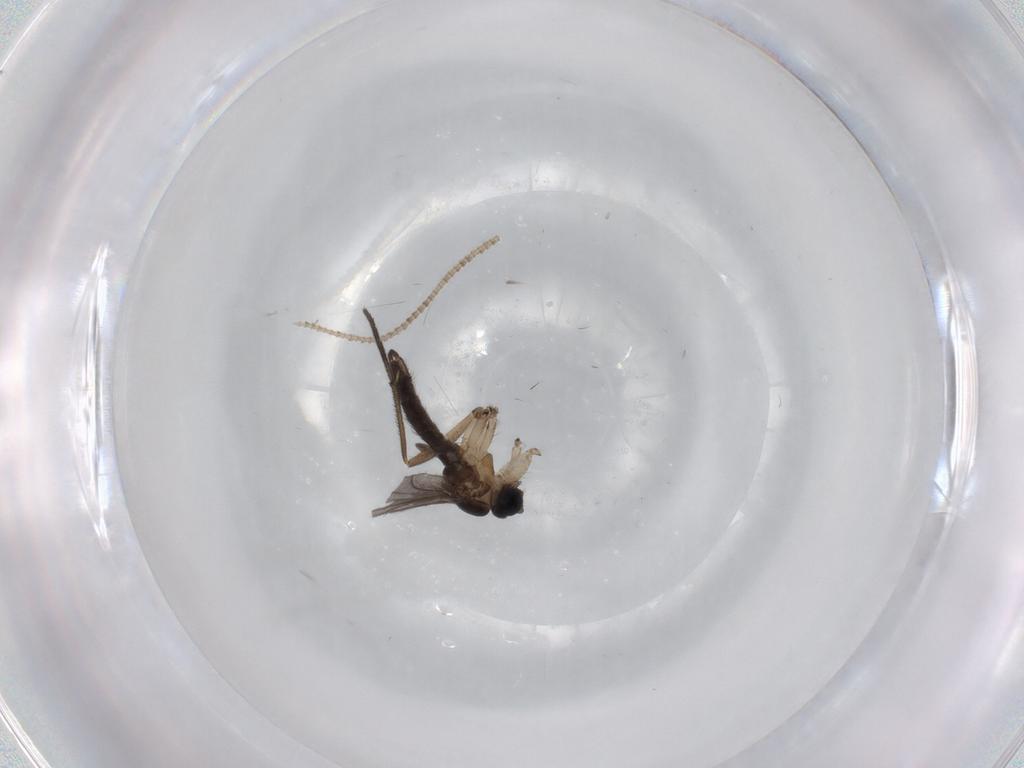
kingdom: Animalia
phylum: Arthropoda
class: Insecta
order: Diptera
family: Sciaridae
